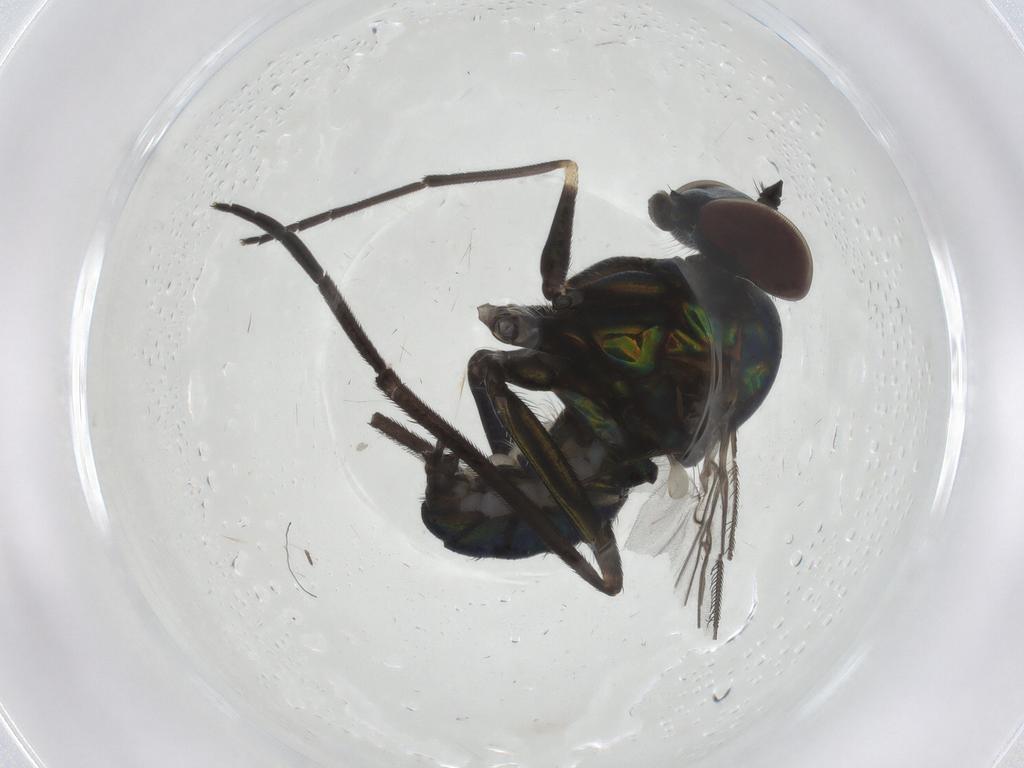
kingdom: Animalia
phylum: Arthropoda
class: Insecta
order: Diptera
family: Dolichopodidae
